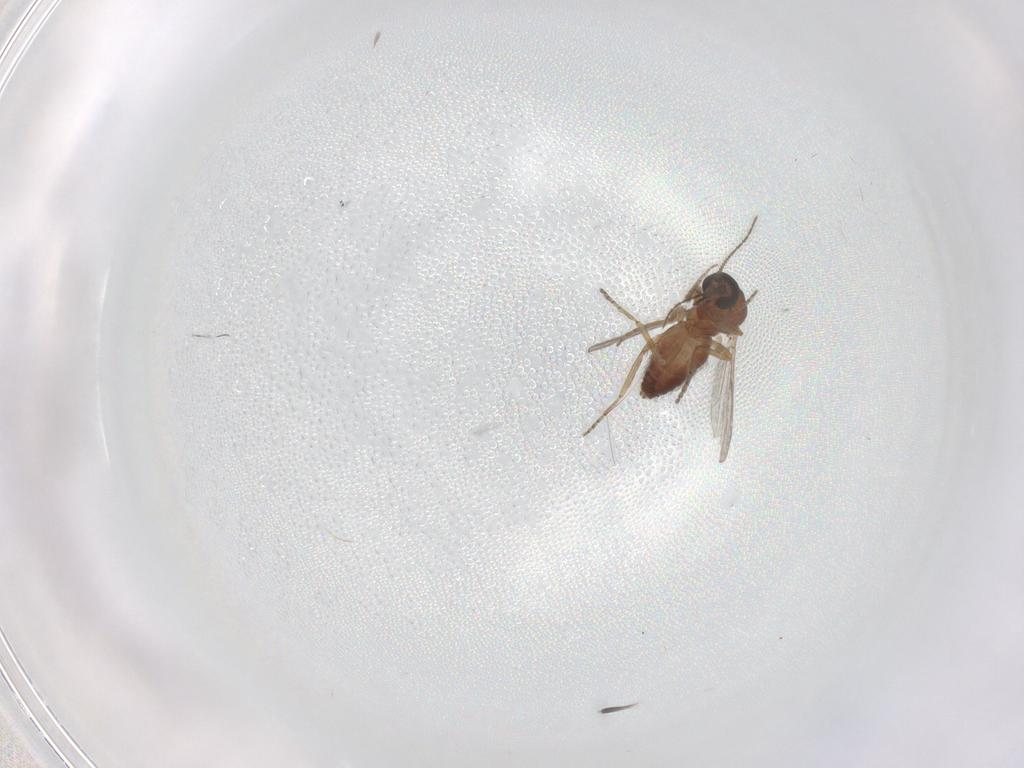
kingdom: Animalia
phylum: Arthropoda
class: Insecta
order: Diptera
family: Ceratopogonidae
